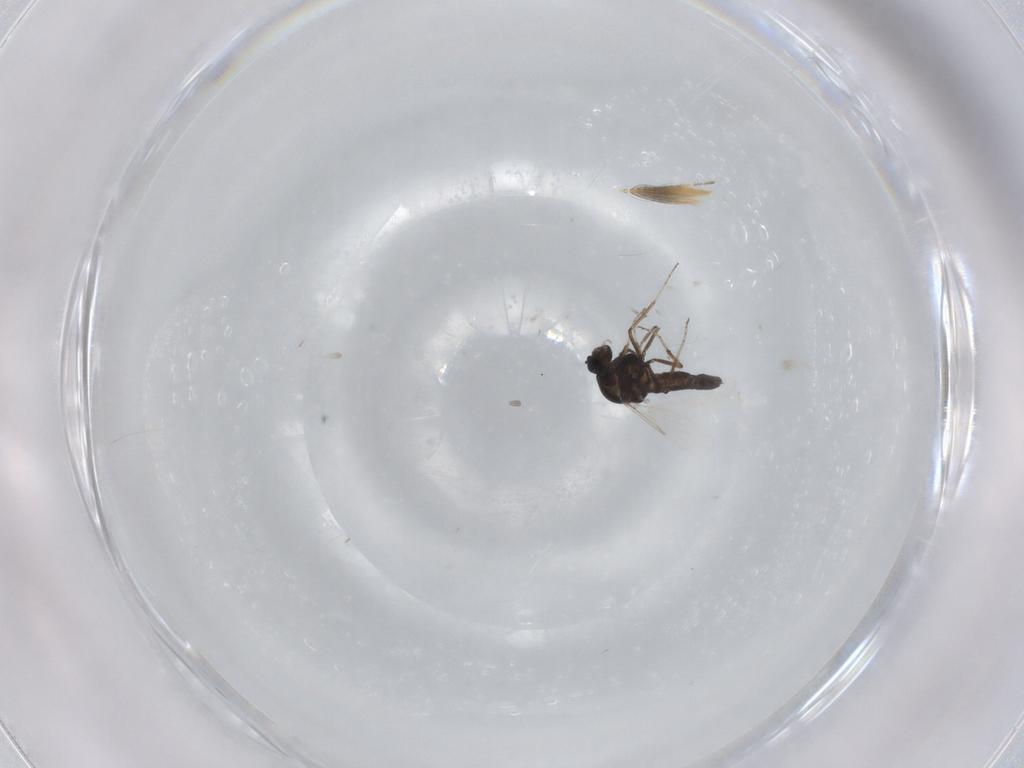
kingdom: Animalia
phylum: Arthropoda
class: Insecta
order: Diptera
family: Ceratopogonidae
